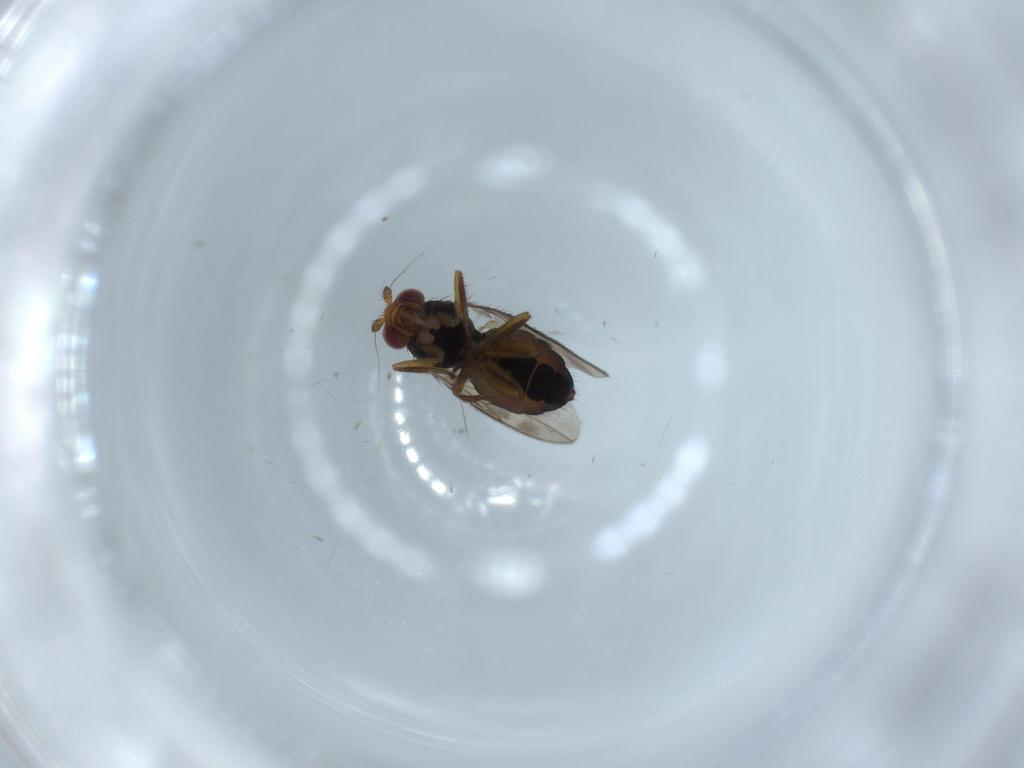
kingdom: Animalia
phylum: Arthropoda
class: Insecta
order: Diptera
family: Sphaeroceridae
